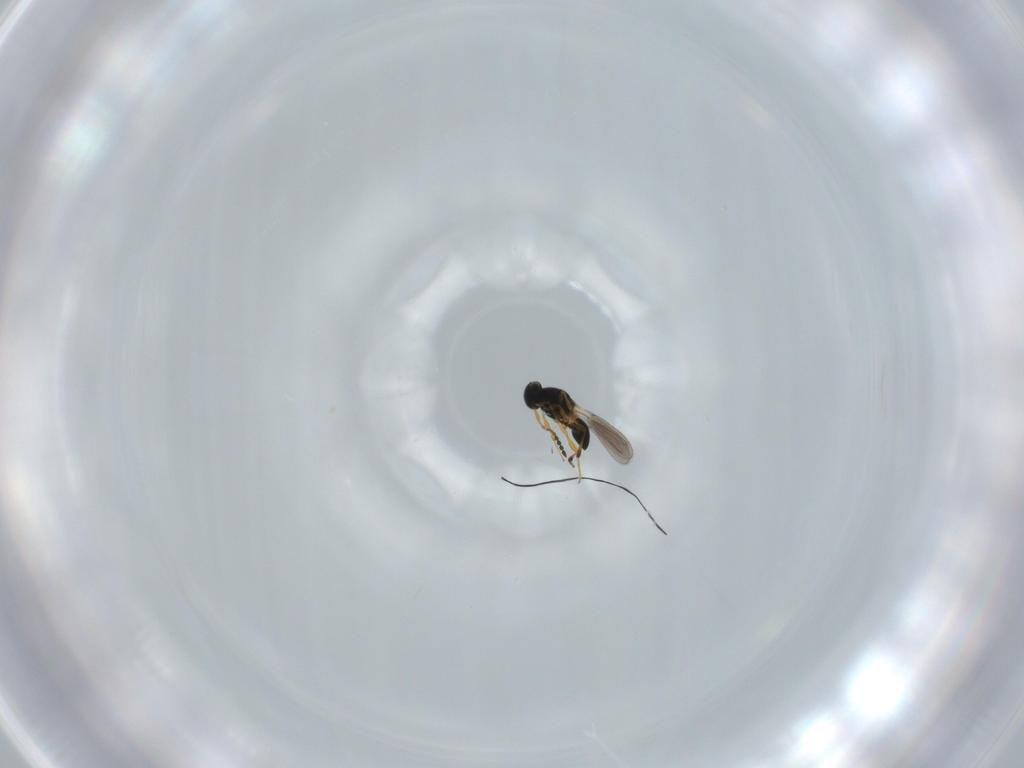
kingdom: Animalia
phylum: Arthropoda
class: Insecta
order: Hymenoptera
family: Platygastridae
